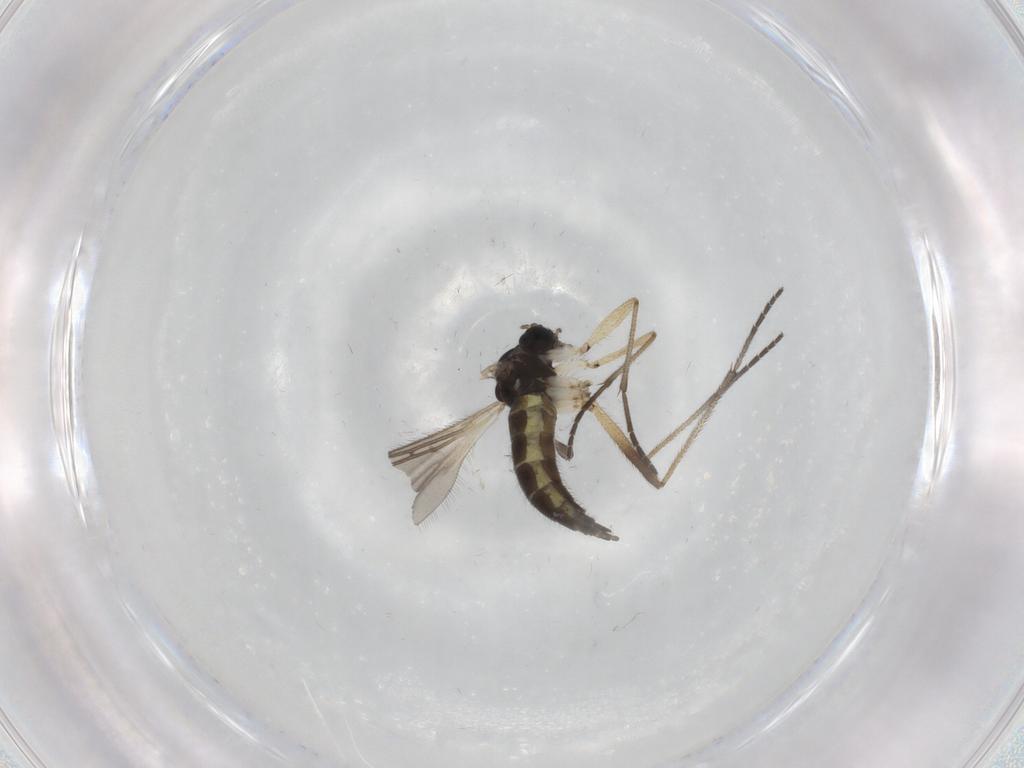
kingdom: Animalia
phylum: Arthropoda
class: Insecta
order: Diptera
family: Sciaridae
